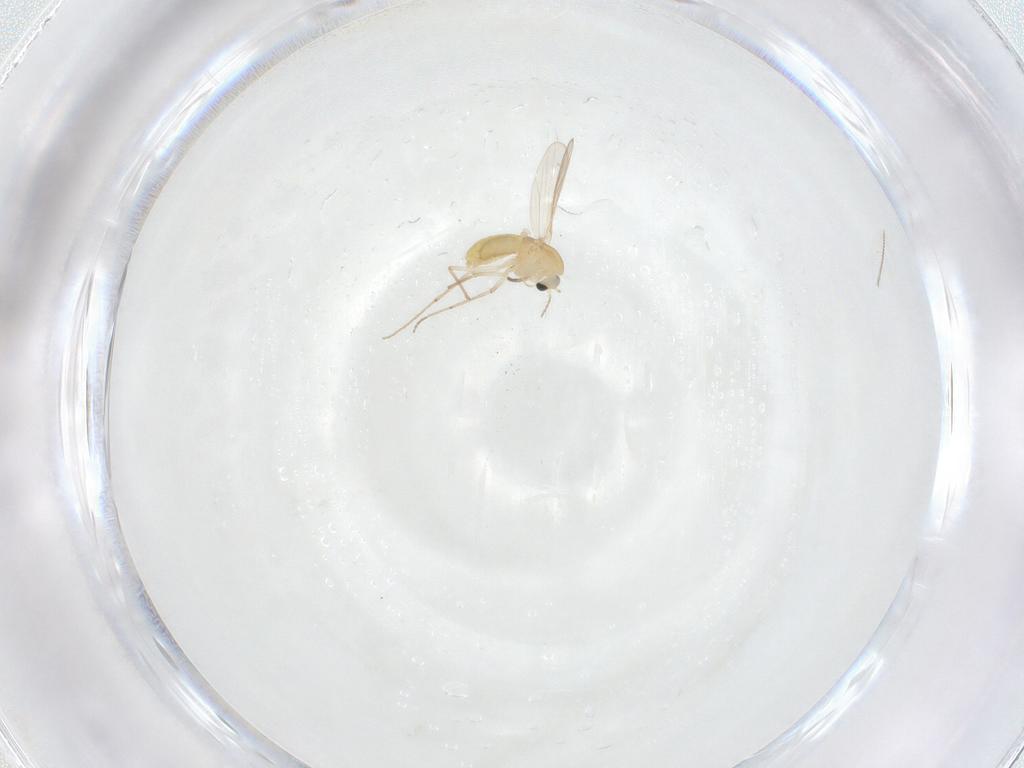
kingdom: Animalia
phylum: Arthropoda
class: Insecta
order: Diptera
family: Chironomidae
